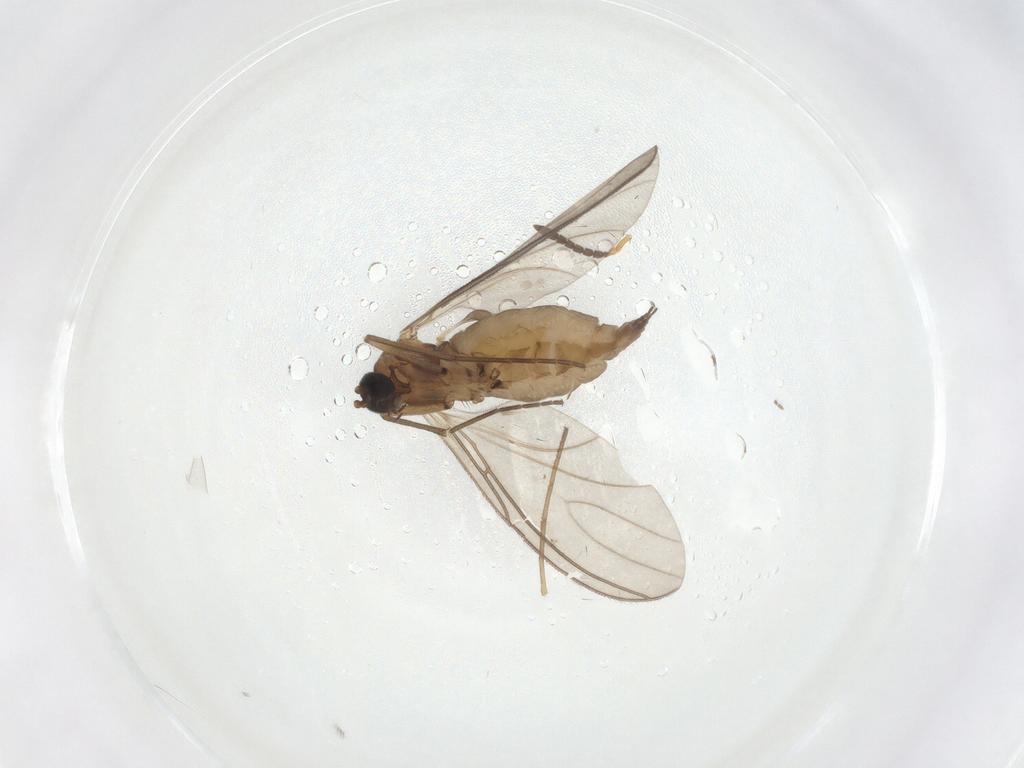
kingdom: Animalia
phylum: Arthropoda
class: Insecta
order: Diptera
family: Sciaridae
